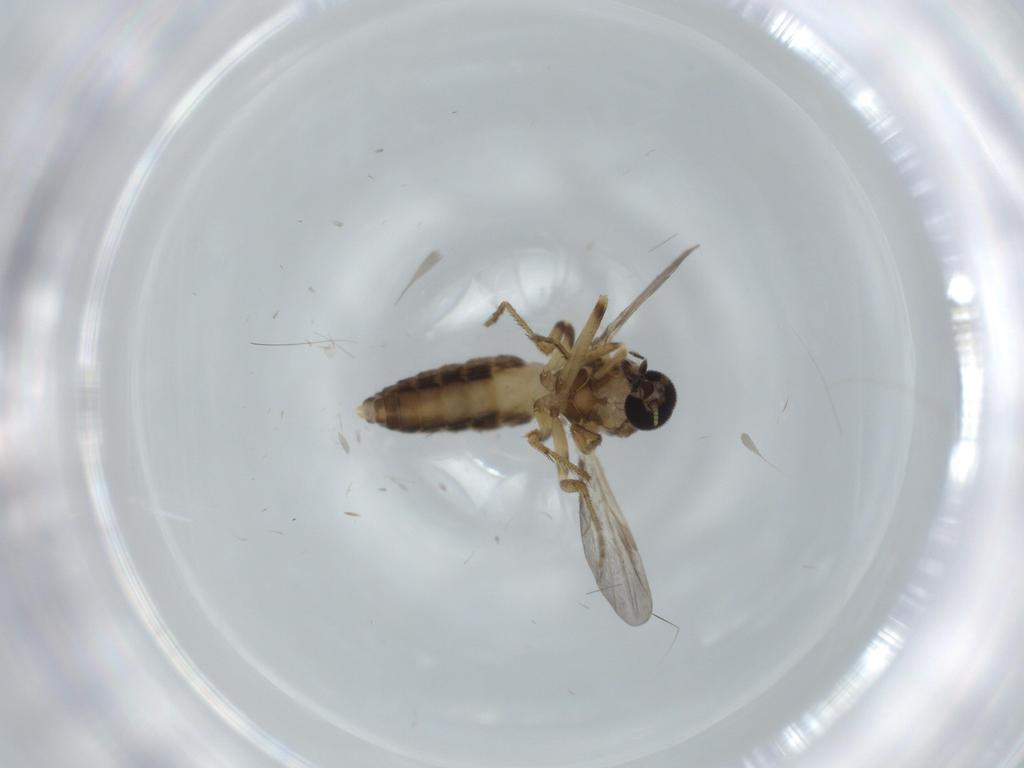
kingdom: Animalia
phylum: Arthropoda
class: Insecta
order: Diptera
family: Ceratopogonidae
